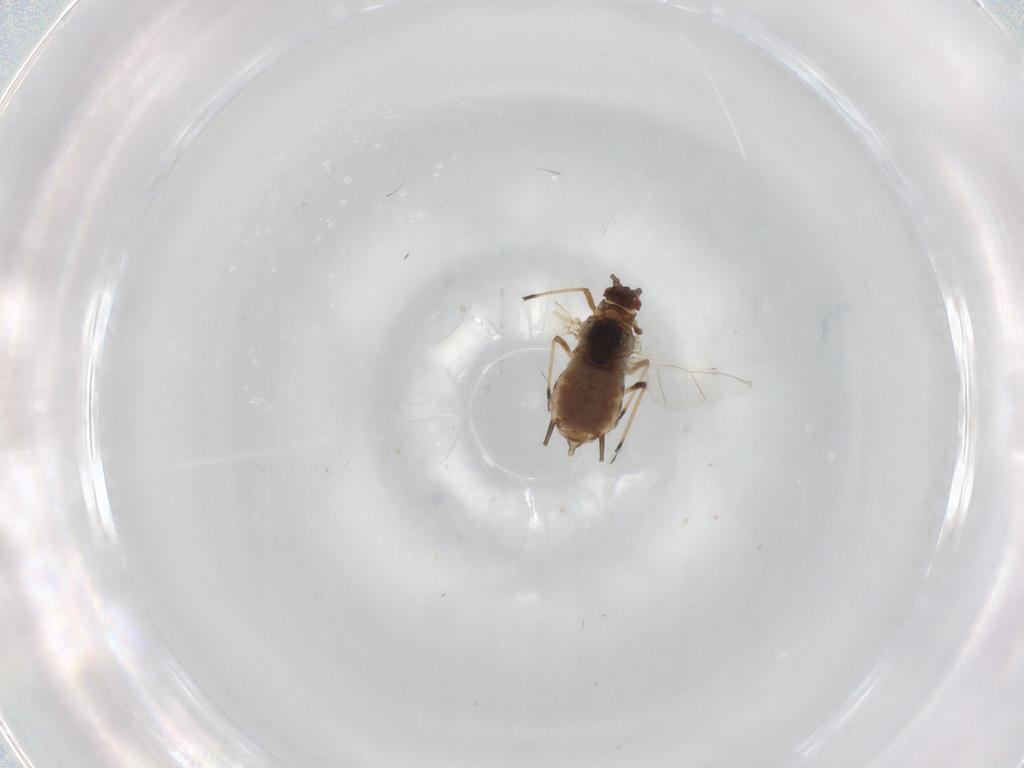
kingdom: Animalia
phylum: Arthropoda
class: Insecta
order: Hemiptera
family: Aphididae
